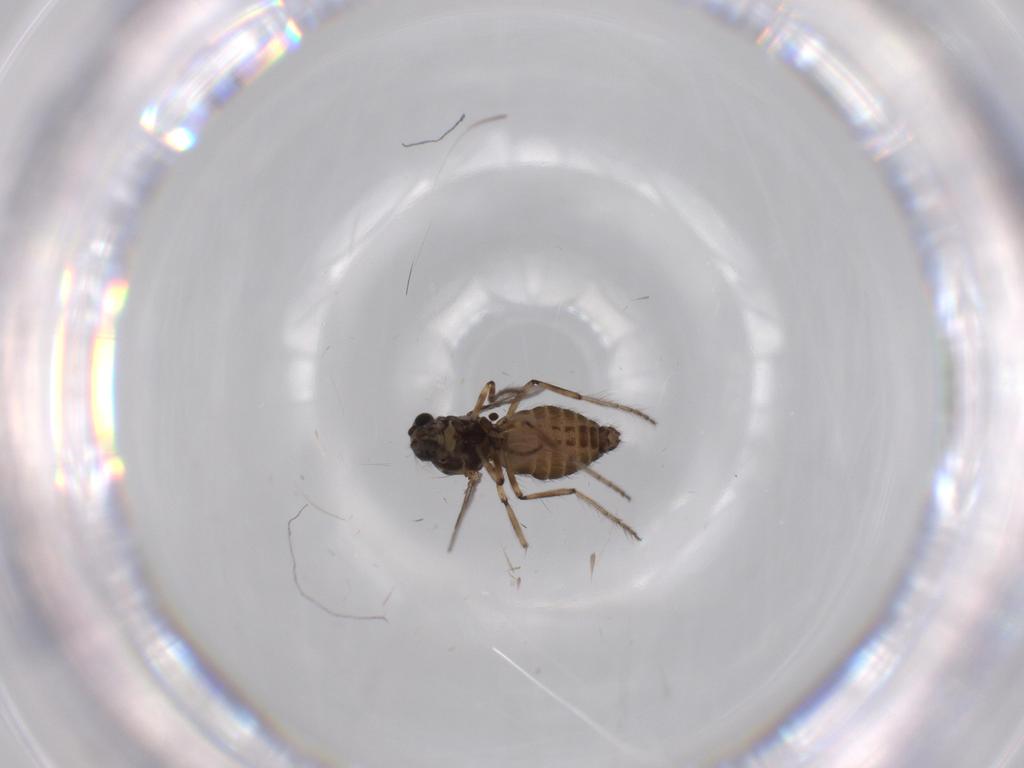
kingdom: Animalia
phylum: Arthropoda
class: Insecta
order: Diptera
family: Ceratopogonidae
